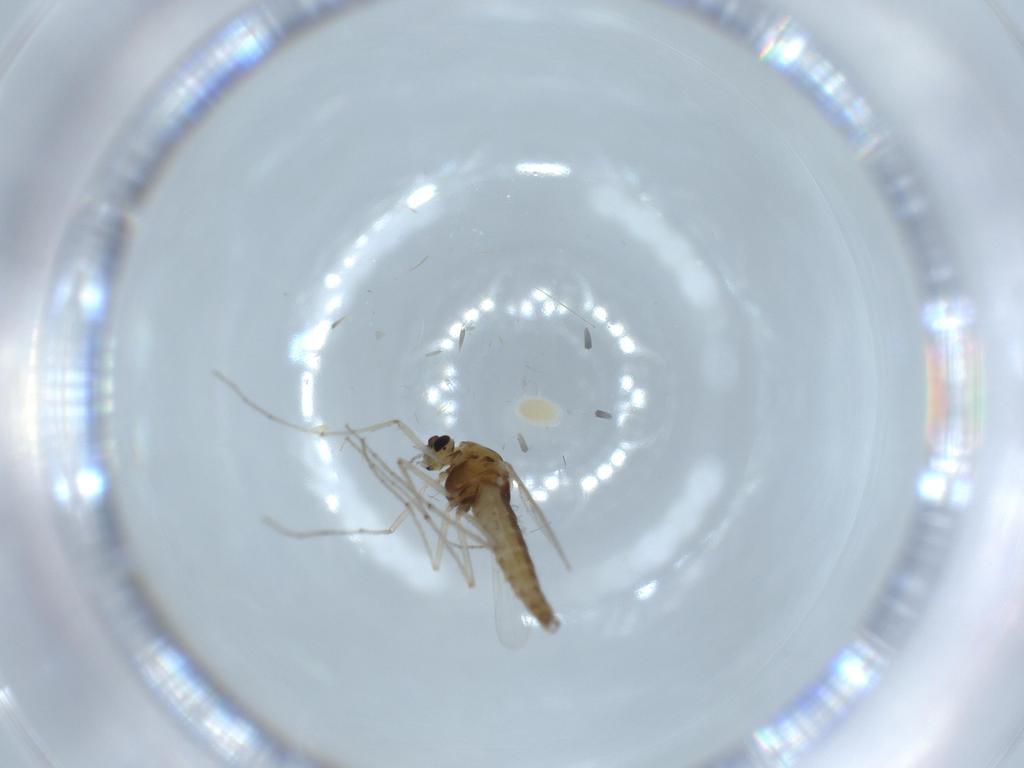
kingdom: Animalia
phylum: Arthropoda
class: Insecta
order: Diptera
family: Chironomidae
